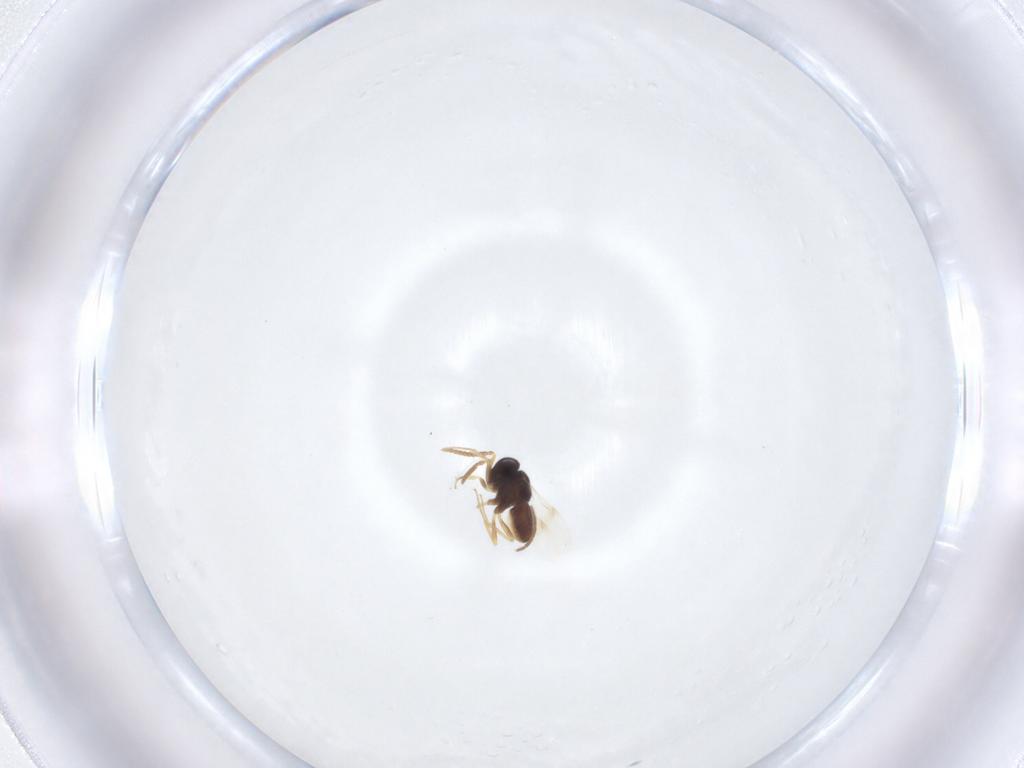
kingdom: Animalia
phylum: Arthropoda
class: Insecta
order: Hymenoptera
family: Braconidae
